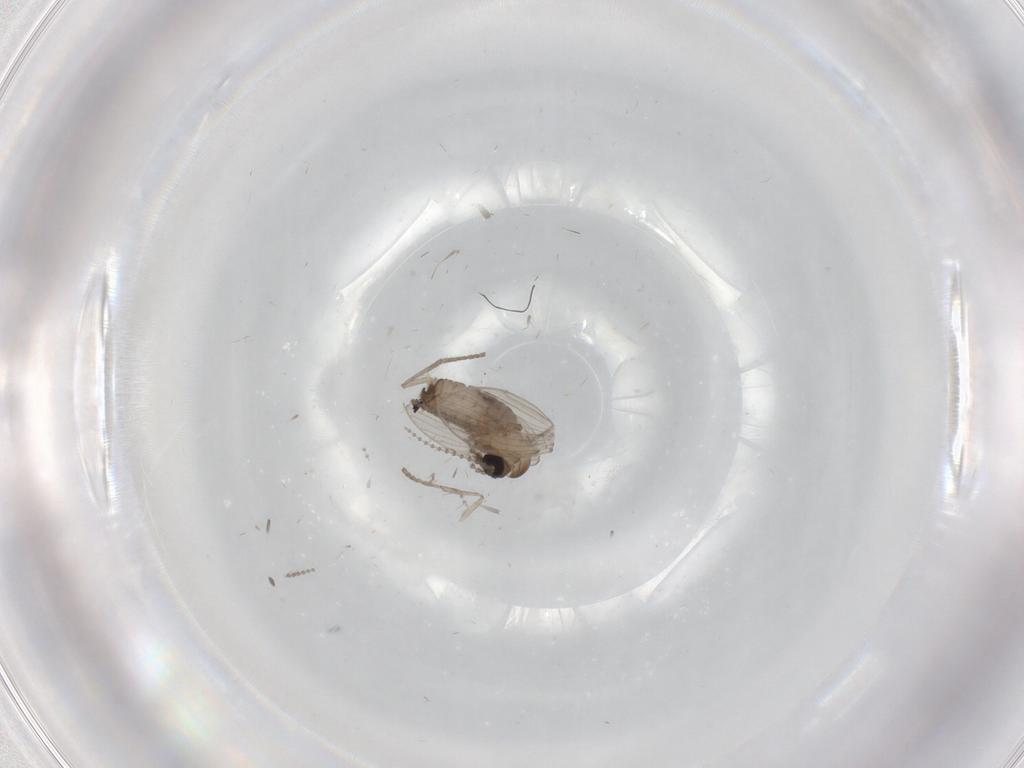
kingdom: Animalia
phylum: Arthropoda
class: Insecta
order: Diptera
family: Psychodidae
